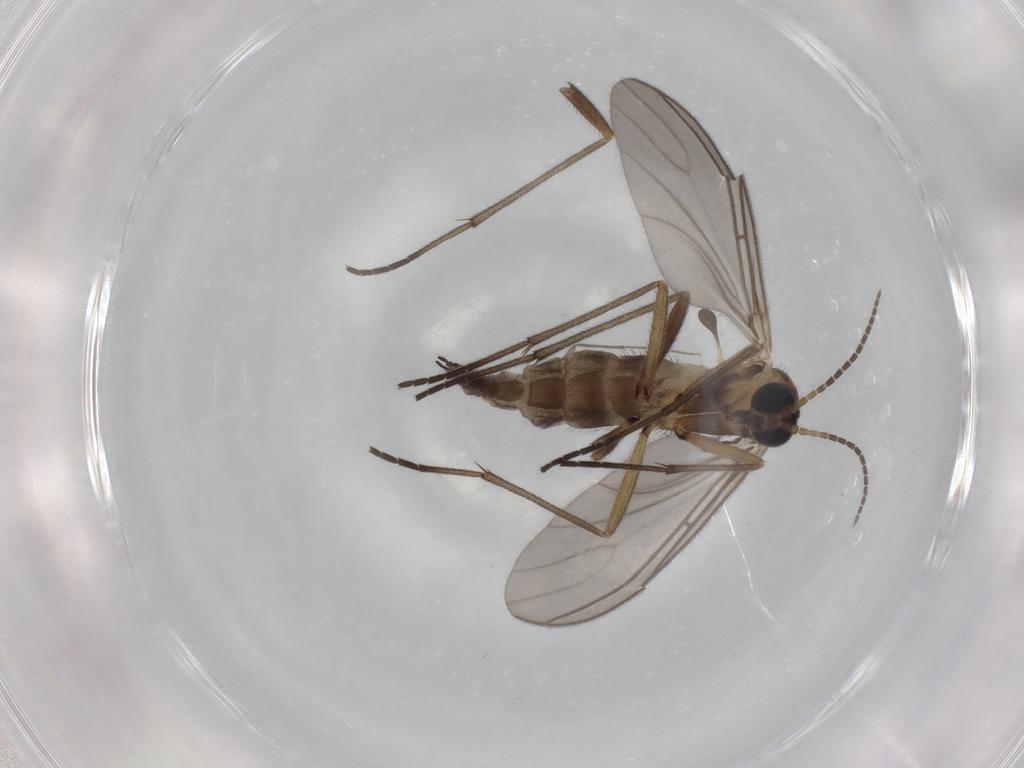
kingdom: Animalia
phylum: Arthropoda
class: Insecta
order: Diptera
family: Sciaridae
